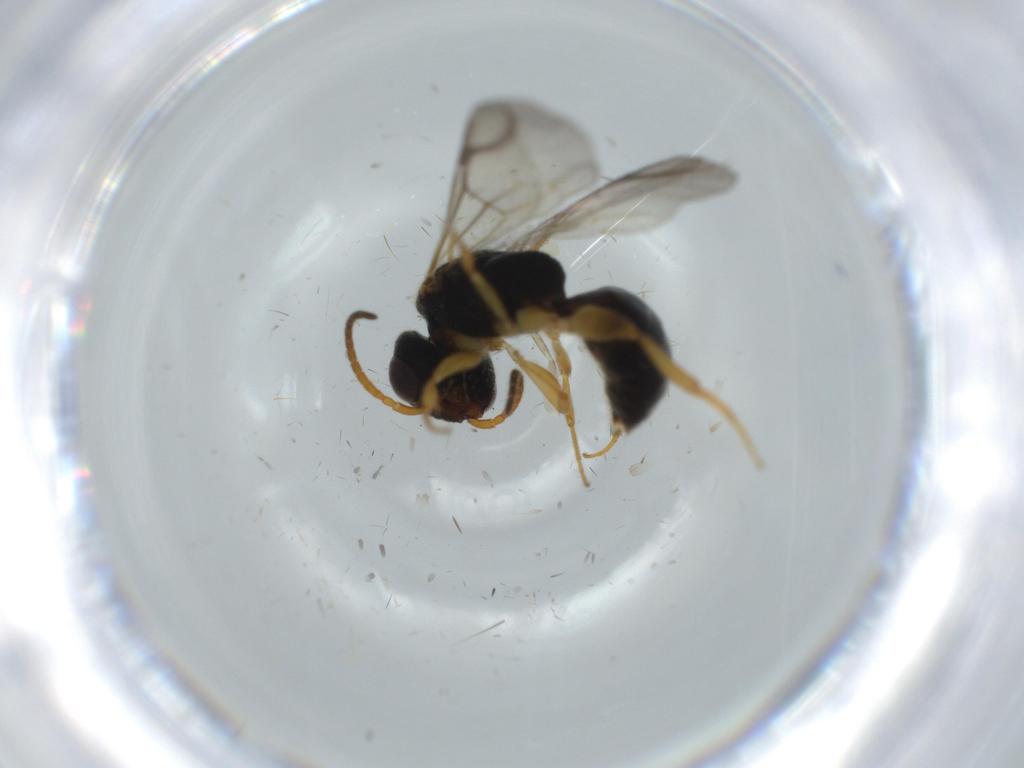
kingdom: Animalia
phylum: Arthropoda
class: Insecta
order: Hymenoptera
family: Bethylidae
